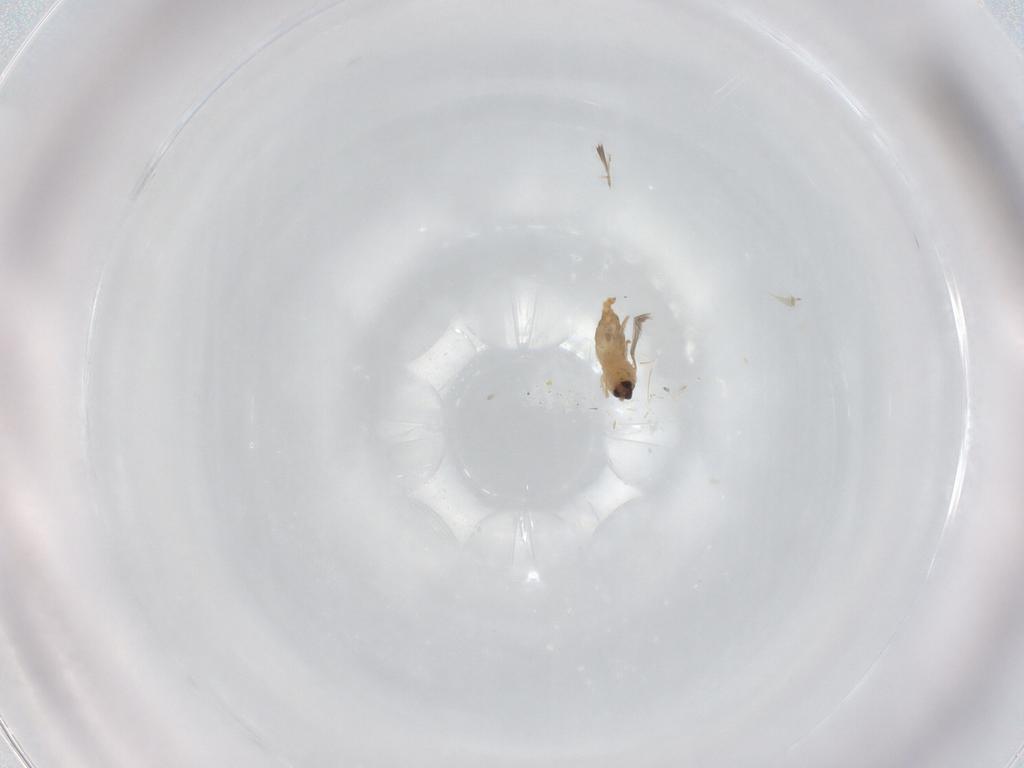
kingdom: Animalia
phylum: Arthropoda
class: Insecta
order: Diptera
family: Cecidomyiidae
